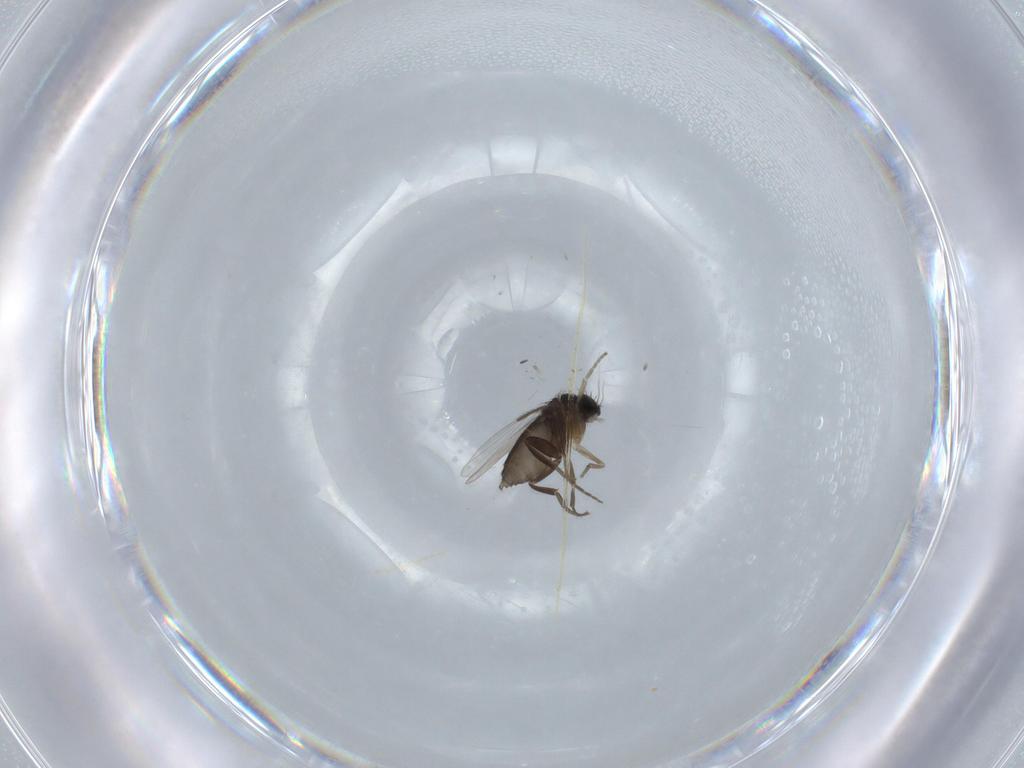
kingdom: Animalia
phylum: Arthropoda
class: Insecta
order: Diptera
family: Phoridae
